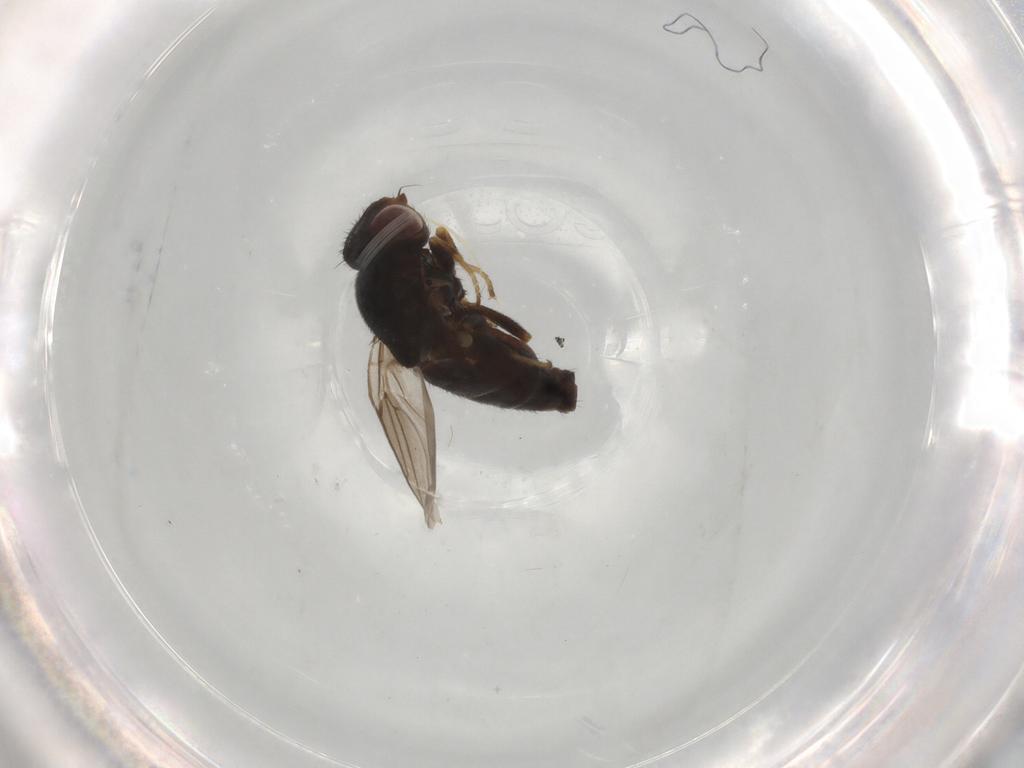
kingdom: Animalia
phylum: Arthropoda
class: Insecta
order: Diptera
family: Chloropidae
